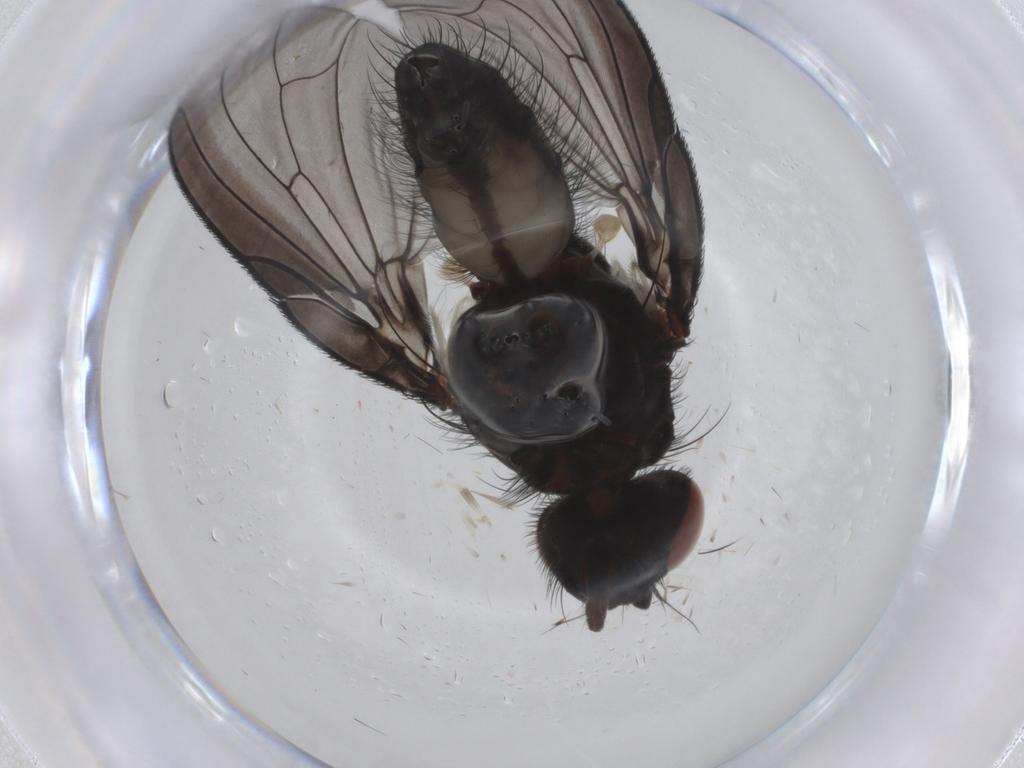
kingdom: Animalia
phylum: Arthropoda
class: Insecta
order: Diptera
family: Anthomyiidae
